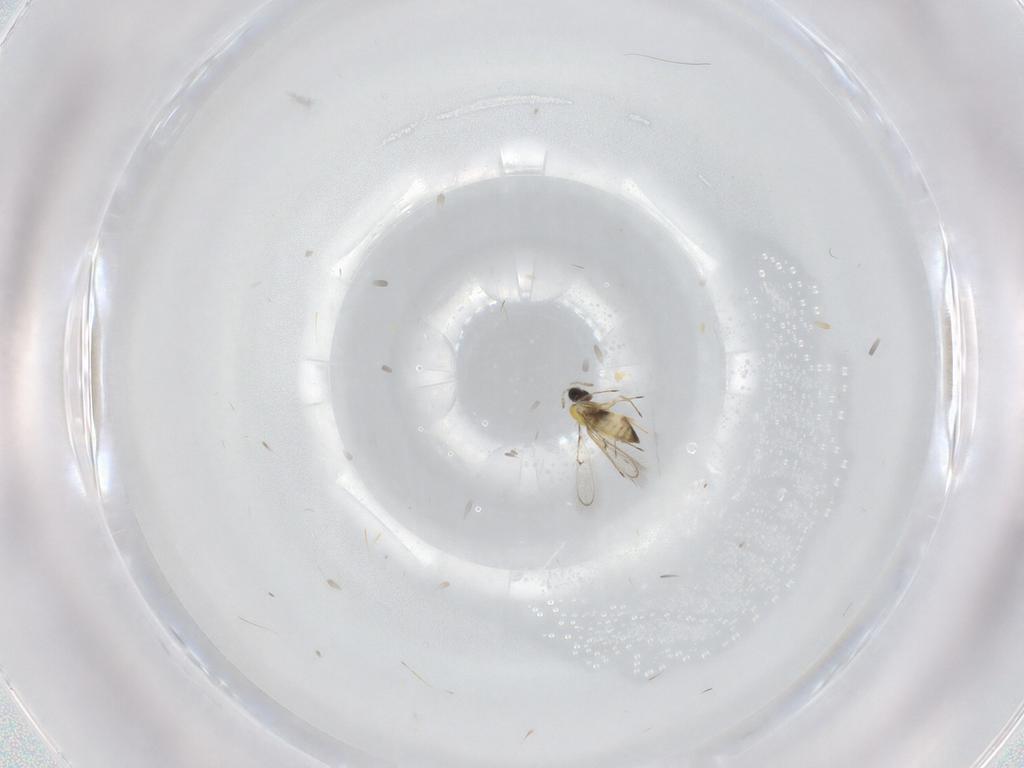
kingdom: Animalia
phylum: Arthropoda
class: Insecta
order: Hymenoptera
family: Trichogrammatidae
